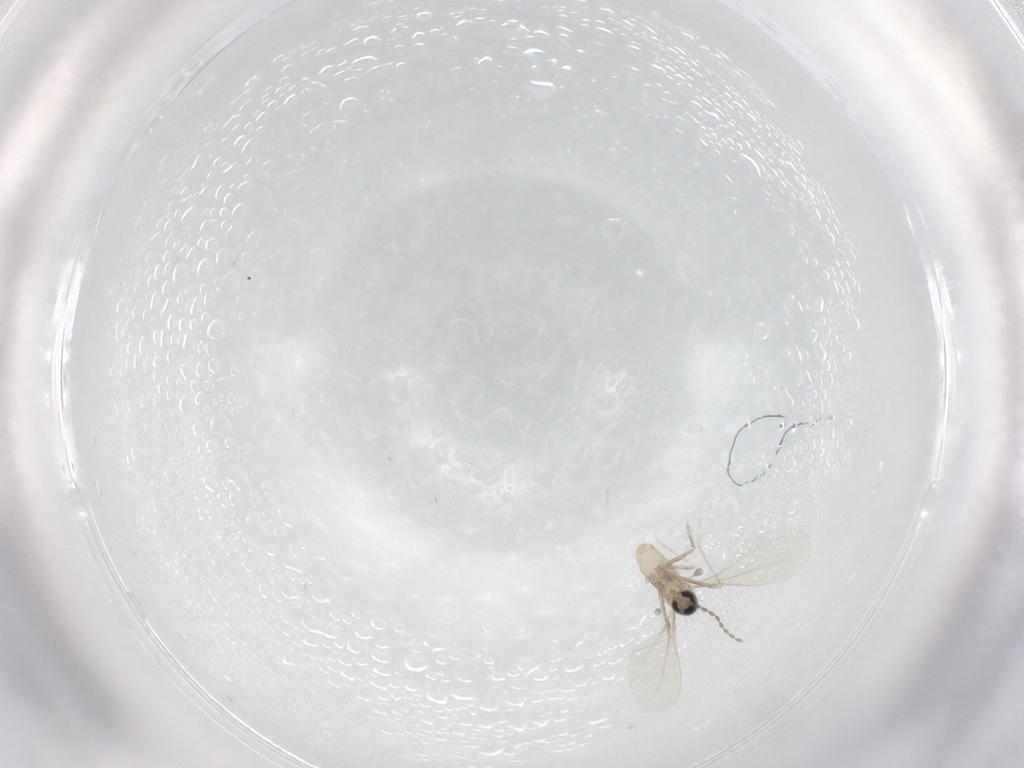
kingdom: Animalia
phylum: Arthropoda
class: Insecta
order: Diptera
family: Cecidomyiidae
